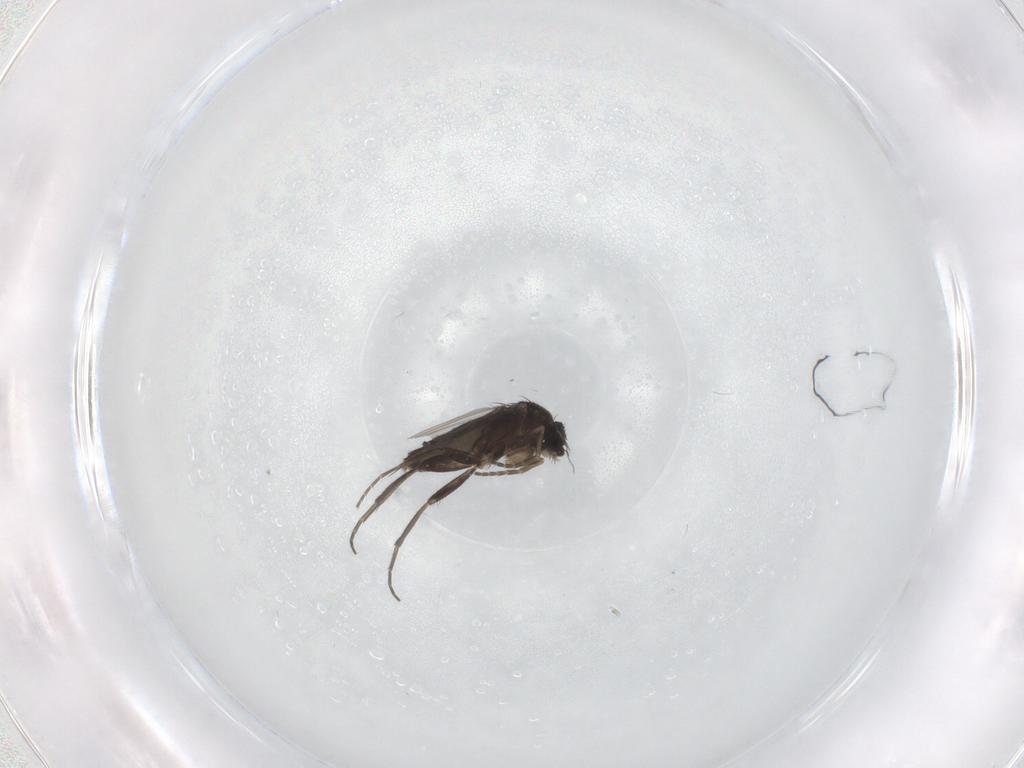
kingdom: Animalia
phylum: Arthropoda
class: Insecta
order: Diptera
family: Phoridae
